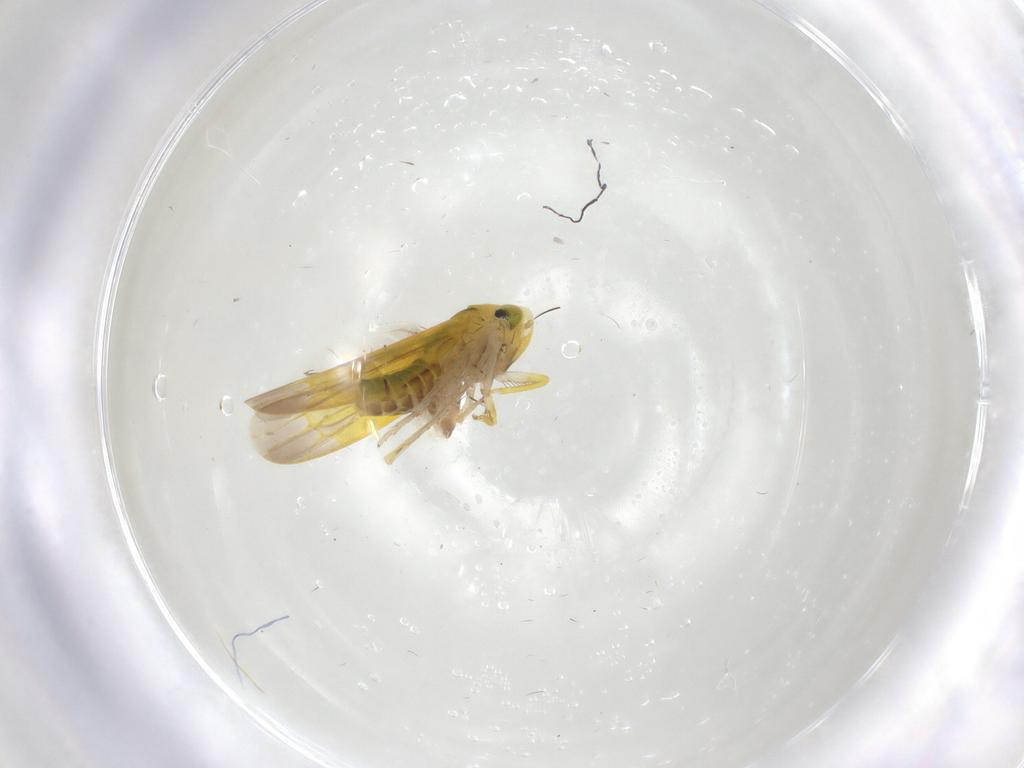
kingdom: Animalia
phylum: Arthropoda
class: Insecta
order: Hemiptera
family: Cicadellidae
